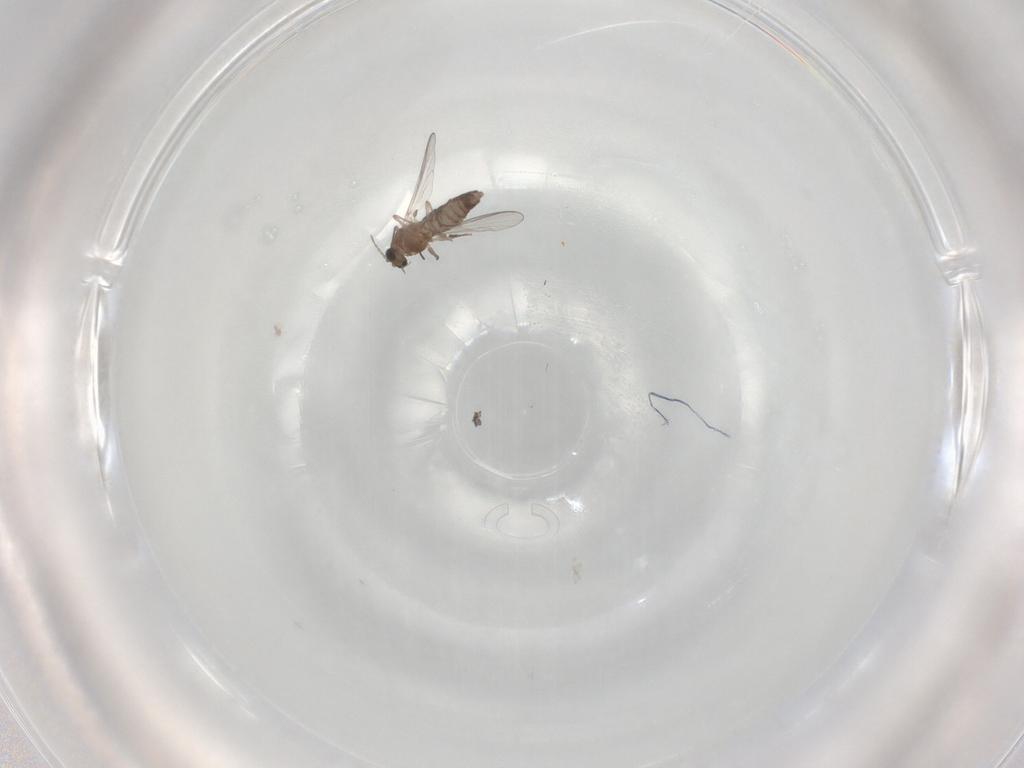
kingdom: Animalia
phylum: Arthropoda
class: Insecta
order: Diptera
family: Chironomidae
